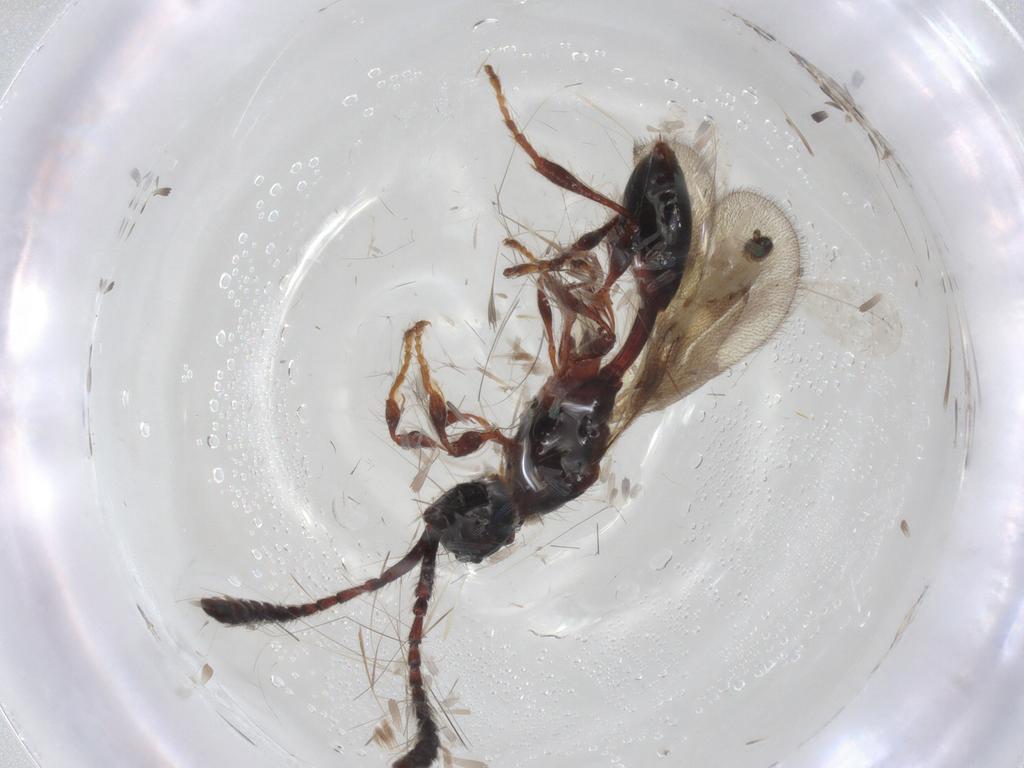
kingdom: Animalia
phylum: Arthropoda
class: Insecta
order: Hymenoptera
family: Diapriidae
